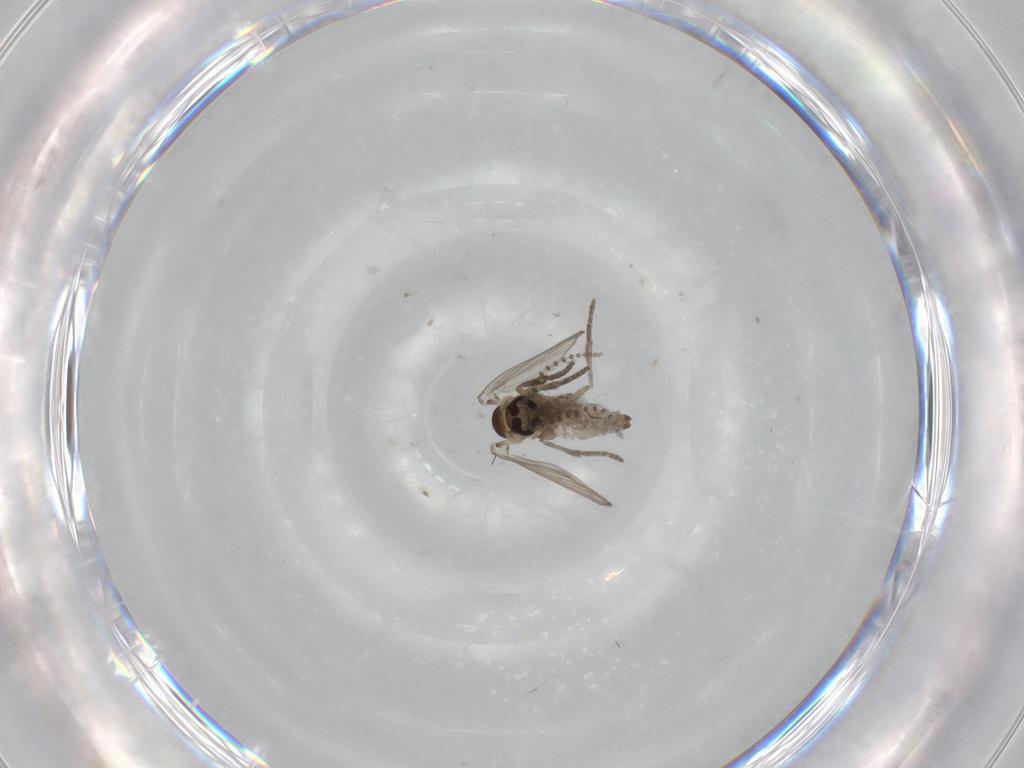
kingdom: Animalia
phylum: Arthropoda
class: Insecta
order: Diptera
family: Psychodidae
